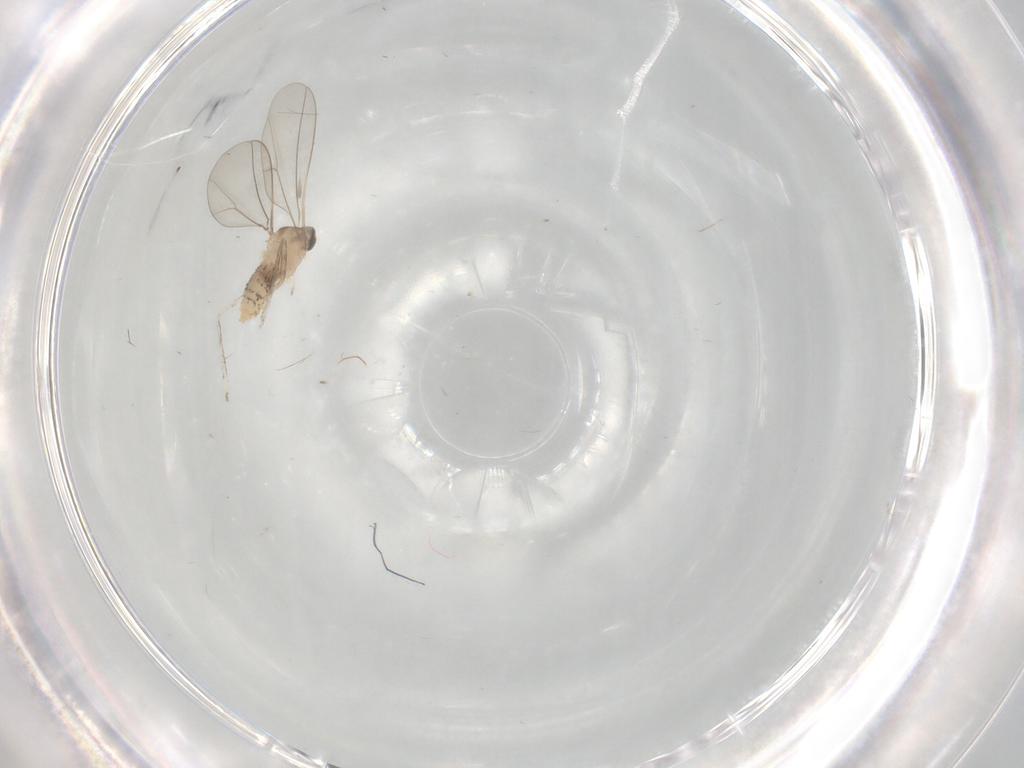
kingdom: Animalia
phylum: Arthropoda
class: Insecta
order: Diptera
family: Cecidomyiidae
